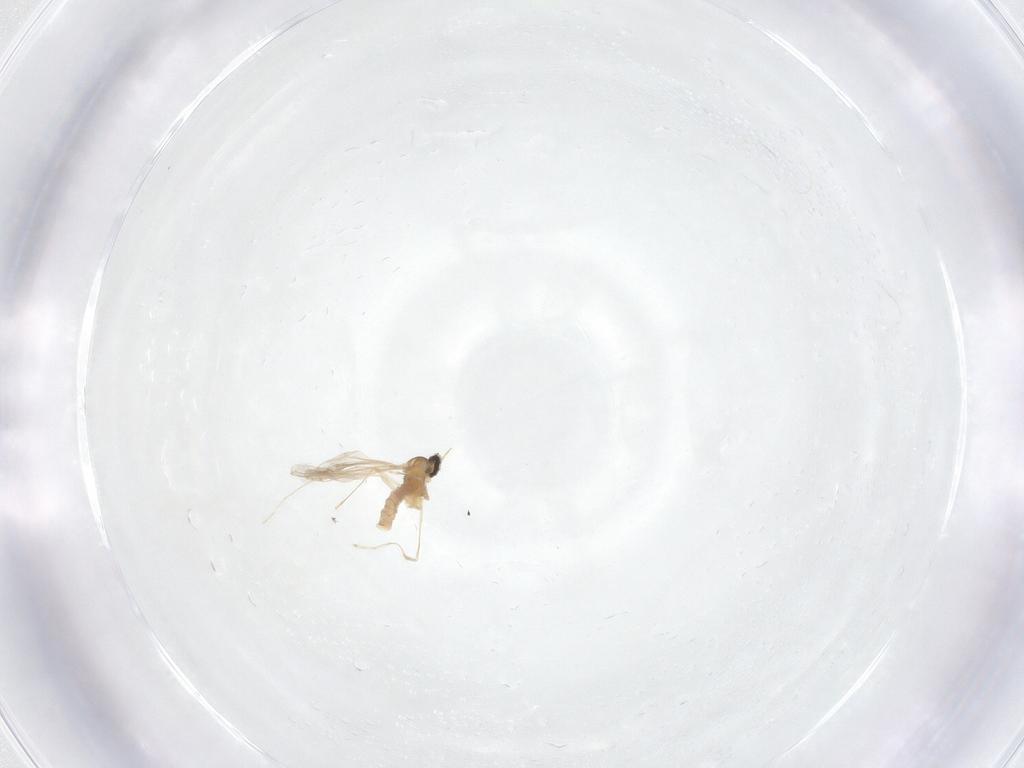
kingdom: Animalia
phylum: Arthropoda
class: Insecta
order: Diptera
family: Cecidomyiidae
